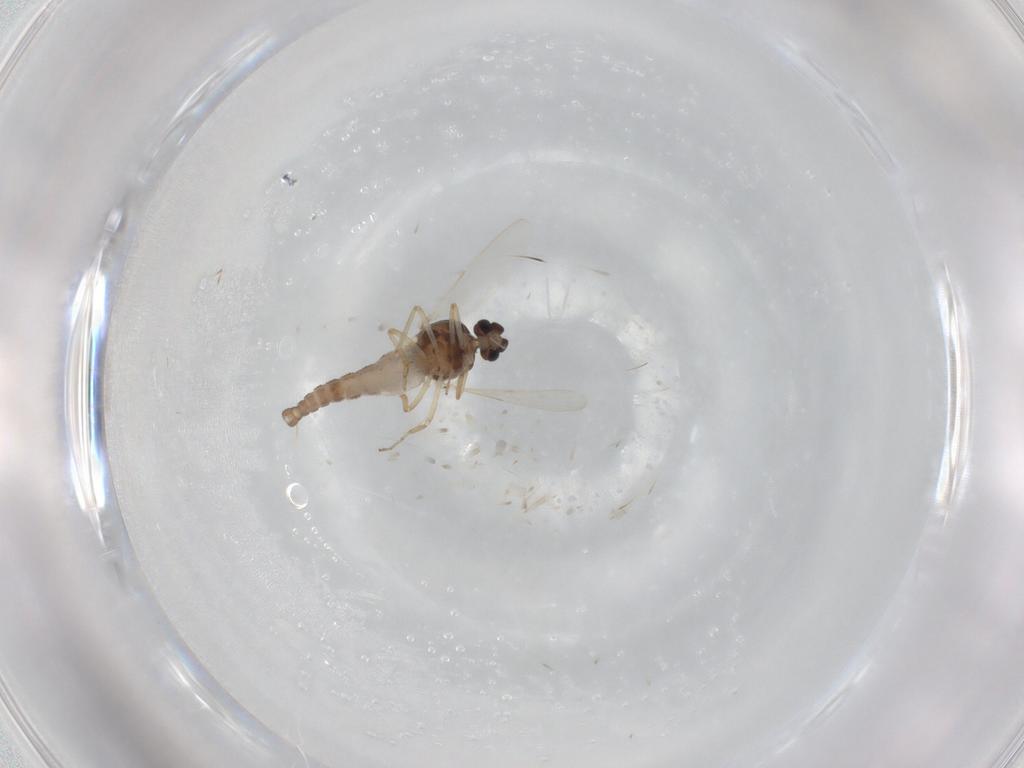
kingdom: Animalia
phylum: Arthropoda
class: Insecta
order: Diptera
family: Ceratopogonidae
